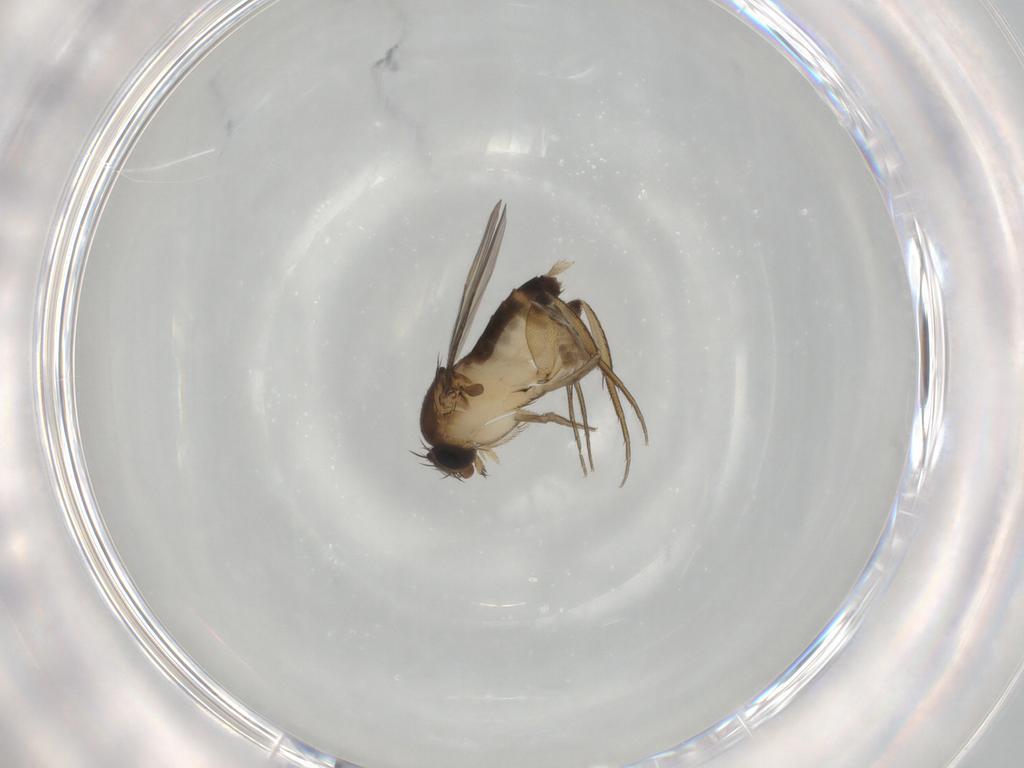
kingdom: Animalia
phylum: Arthropoda
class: Insecta
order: Diptera
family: Phoridae
